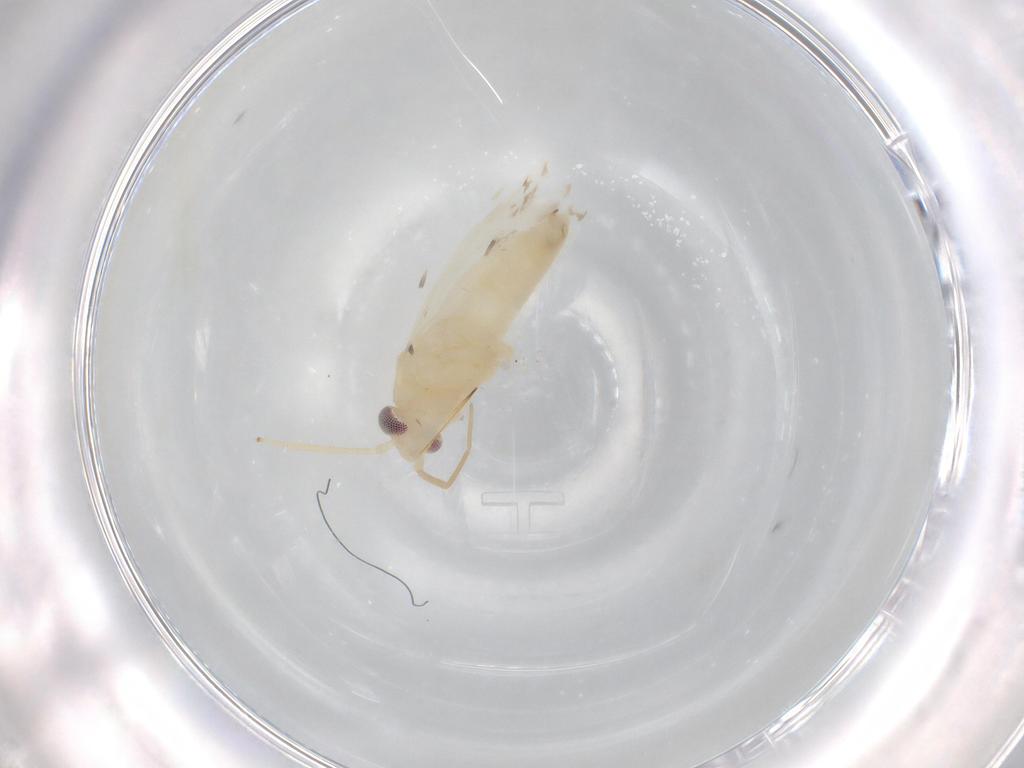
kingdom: Animalia
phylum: Arthropoda
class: Insecta
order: Hemiptera
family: Miridae
